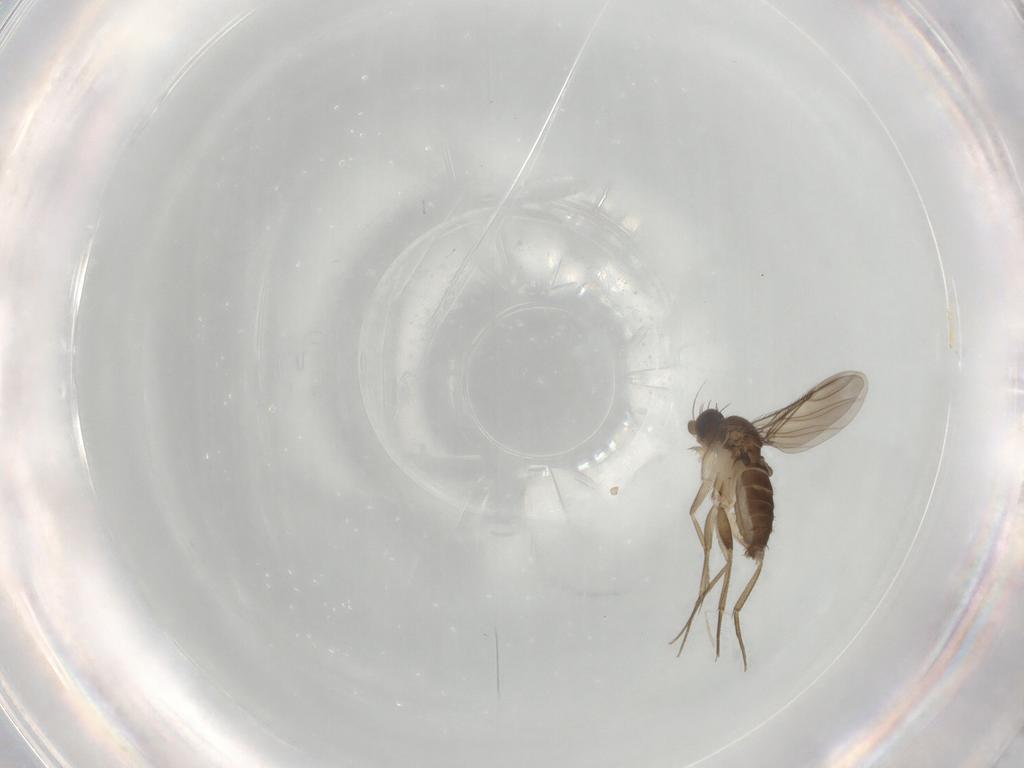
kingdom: Animalia
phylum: Arthropoda
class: Insecta
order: Diptera
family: Phoridae
